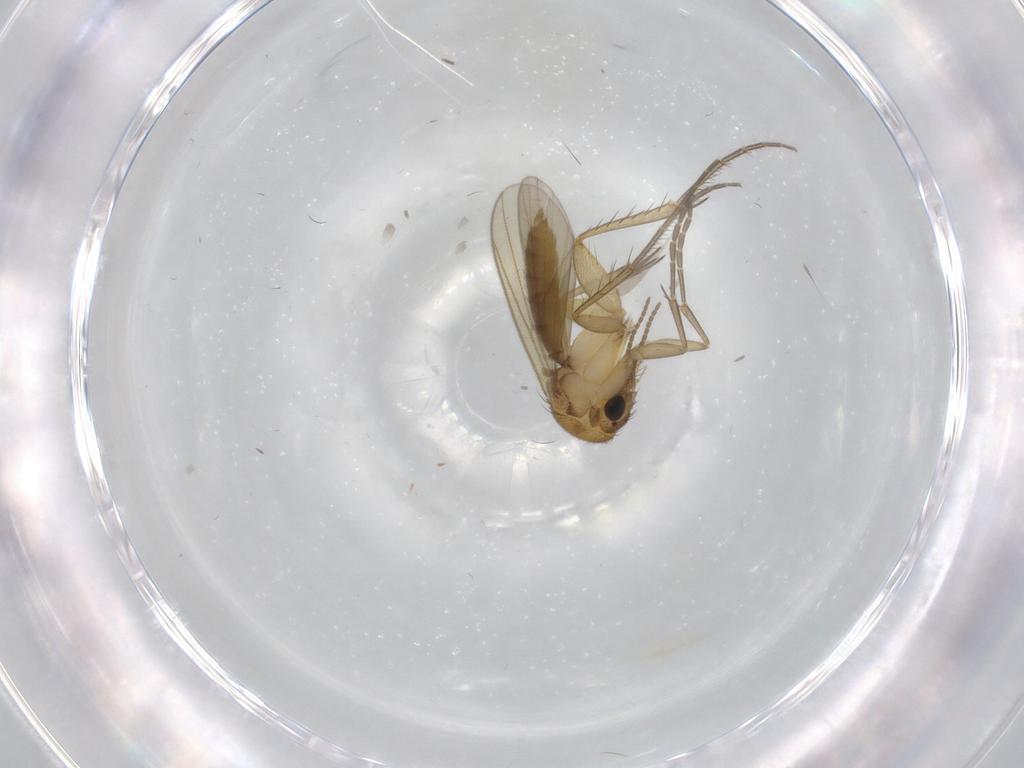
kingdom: Animalia
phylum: Arthropoda
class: Insecta
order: Diptera
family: Mycetophilidae
